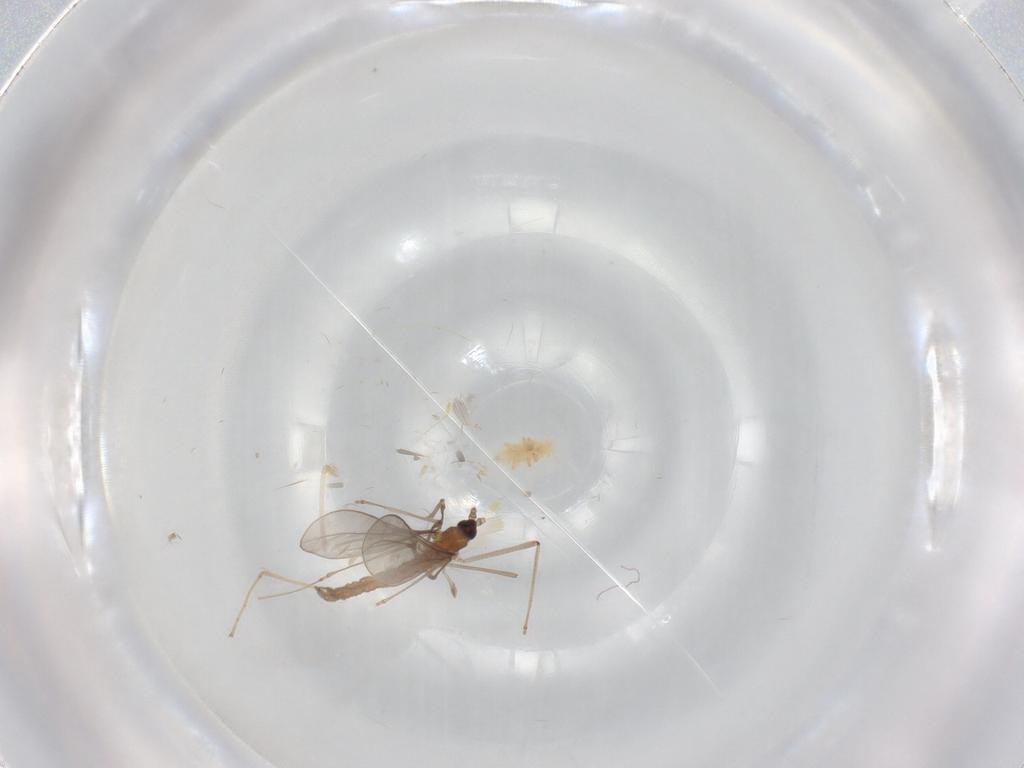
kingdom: Animalia
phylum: Arthropoda
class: Insecta
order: Diptera
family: Cecidomyiidae
